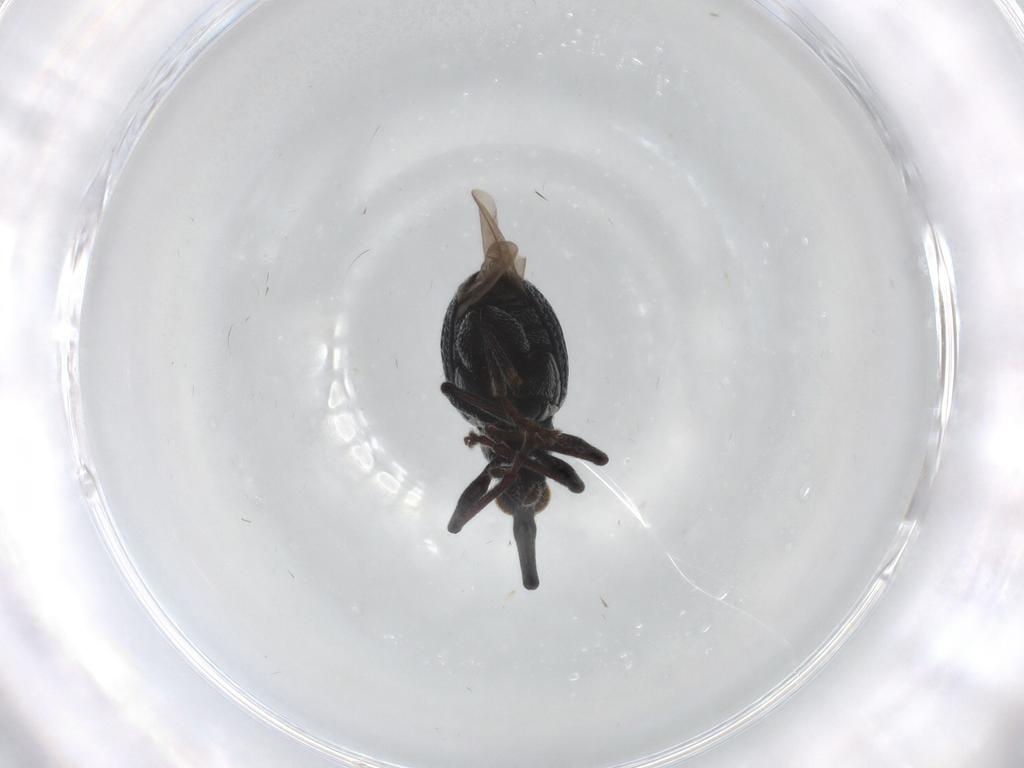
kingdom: Animalia
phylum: Arthropoda
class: Insecta
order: Coleoptera
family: Brentidae
